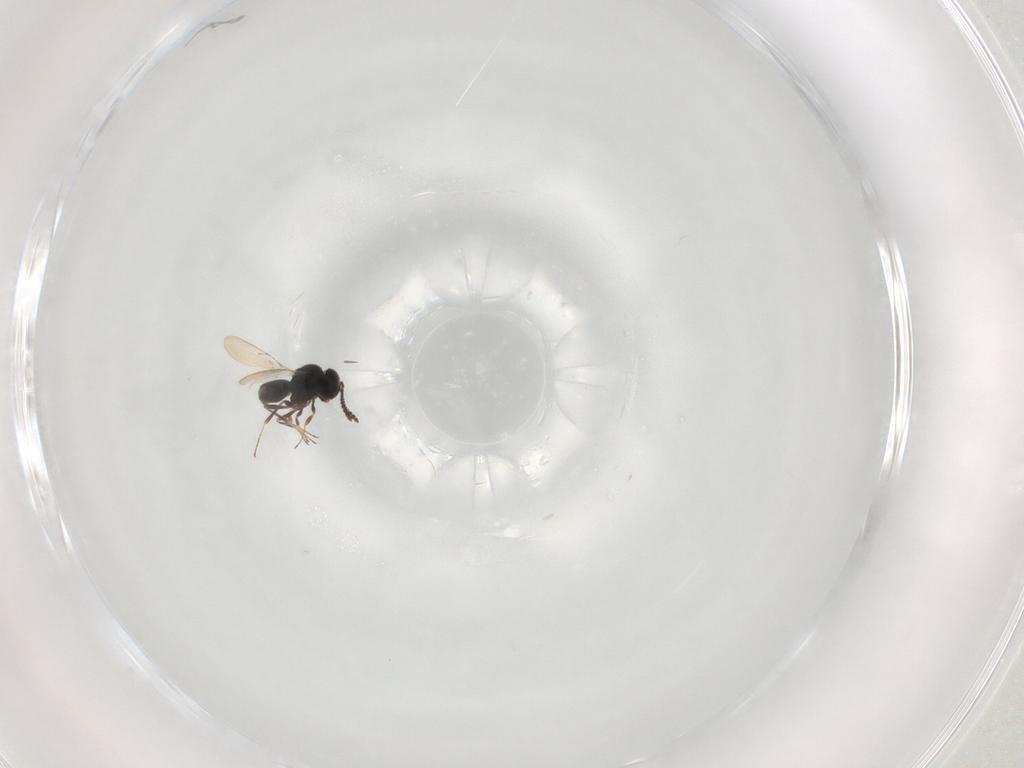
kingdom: Animalia
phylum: Arthropoda
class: Insecta
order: Hymenoptera
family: Scelionidae
